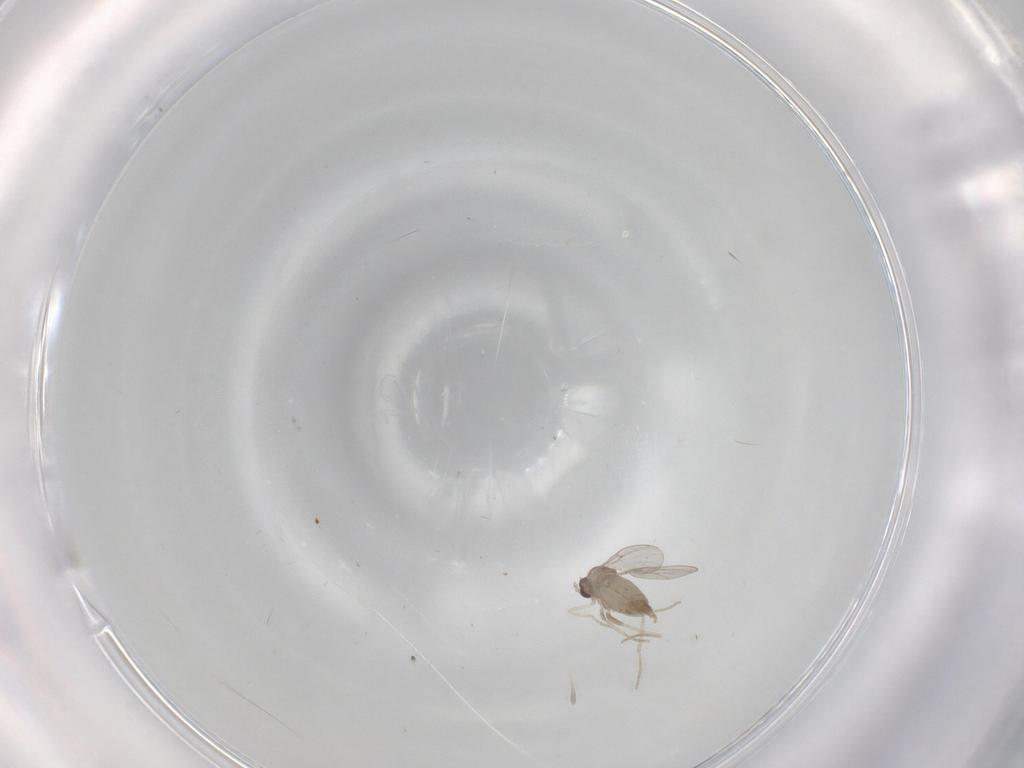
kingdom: Animalia
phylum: Arthropoda
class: Insecta
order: Diptera
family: Cecidomyiidae
